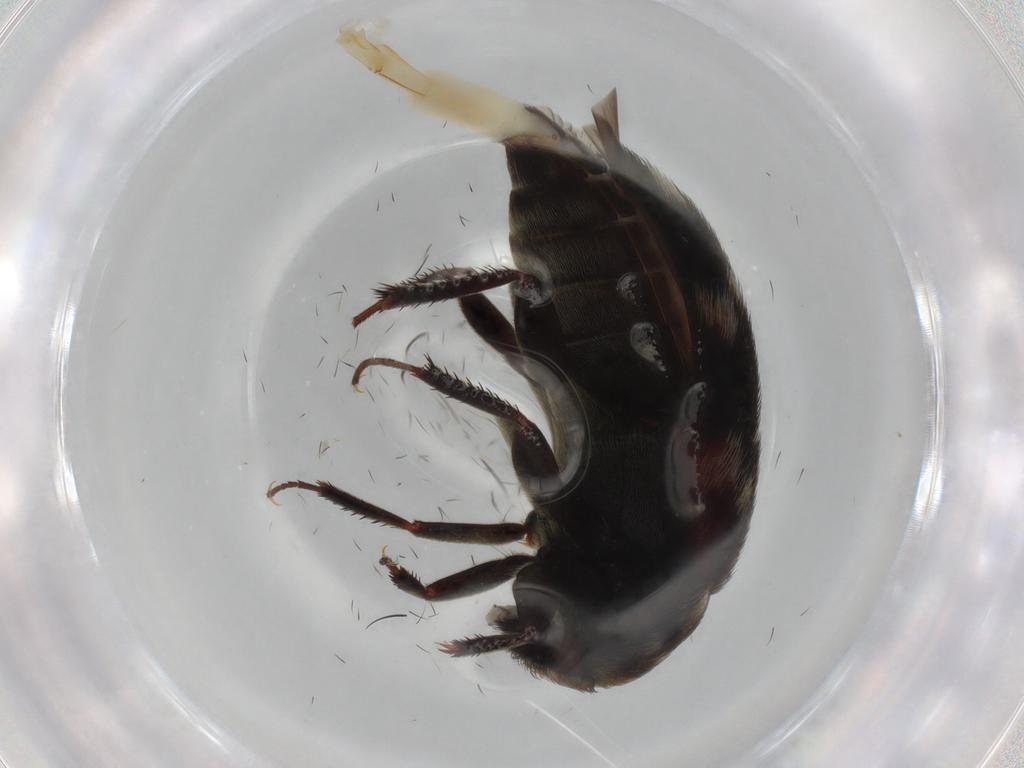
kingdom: Animalia
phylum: Arthropoda
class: Insecta
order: Coleoptera
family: Dermestidae
